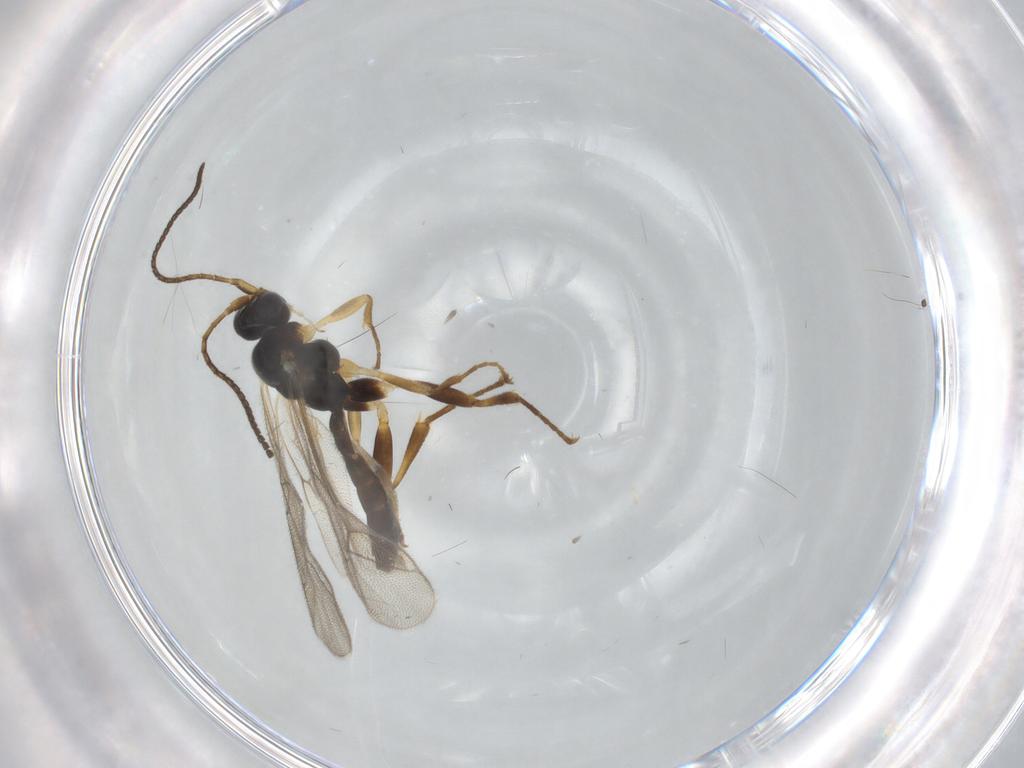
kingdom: Animalia
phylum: Arthropoda
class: Insecta
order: Hymenoptera
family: Ichneumonidae
